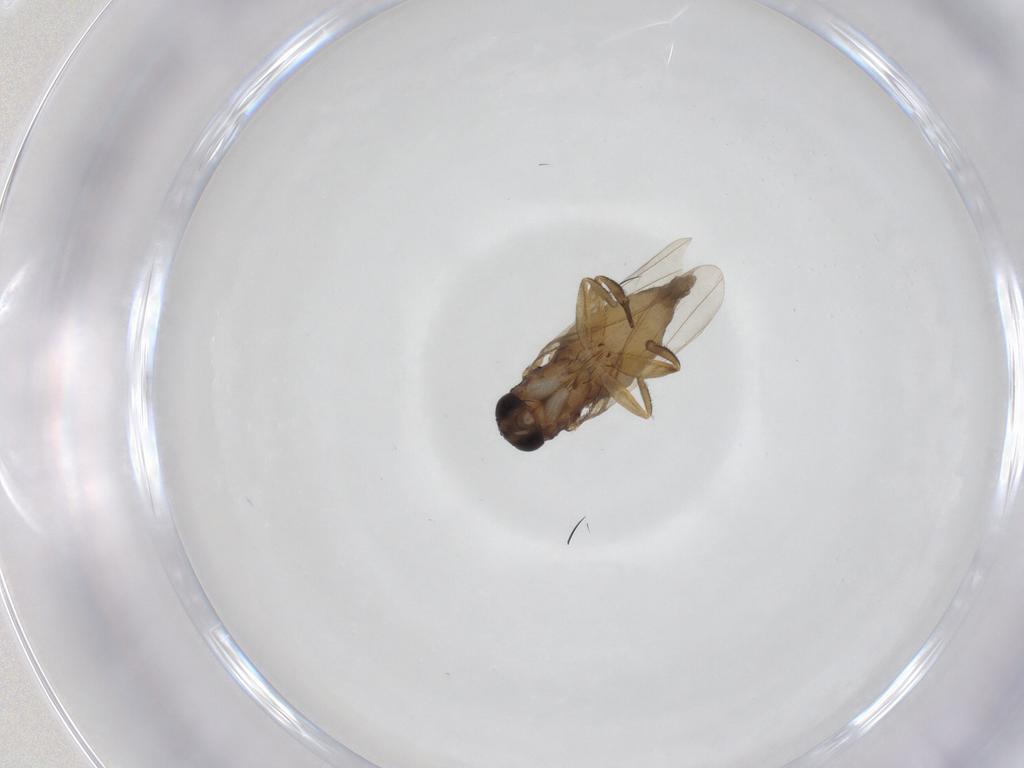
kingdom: Animalia
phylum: Arthropoda
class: Insecta
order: Diptera
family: Phoridae
